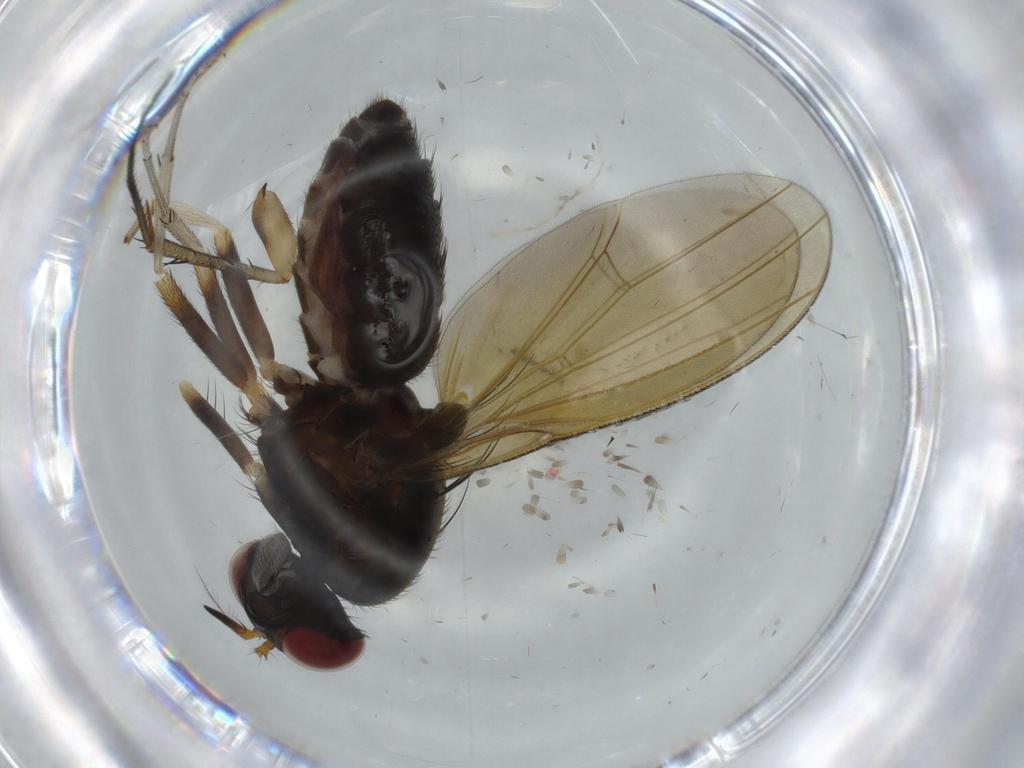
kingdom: Animalia
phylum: Arthropoda
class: Insecta
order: Diptera
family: Mycetophilidae
